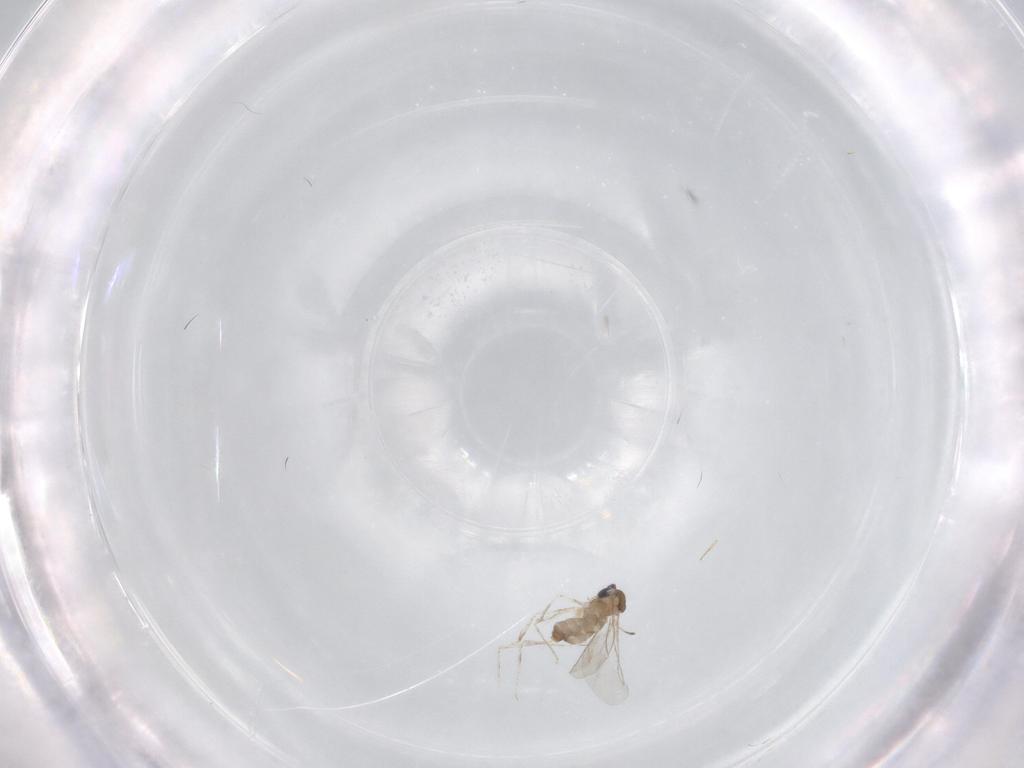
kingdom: Animalia
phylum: Arthropoda
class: Insecta
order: Diptera
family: Cecidomyiidae
